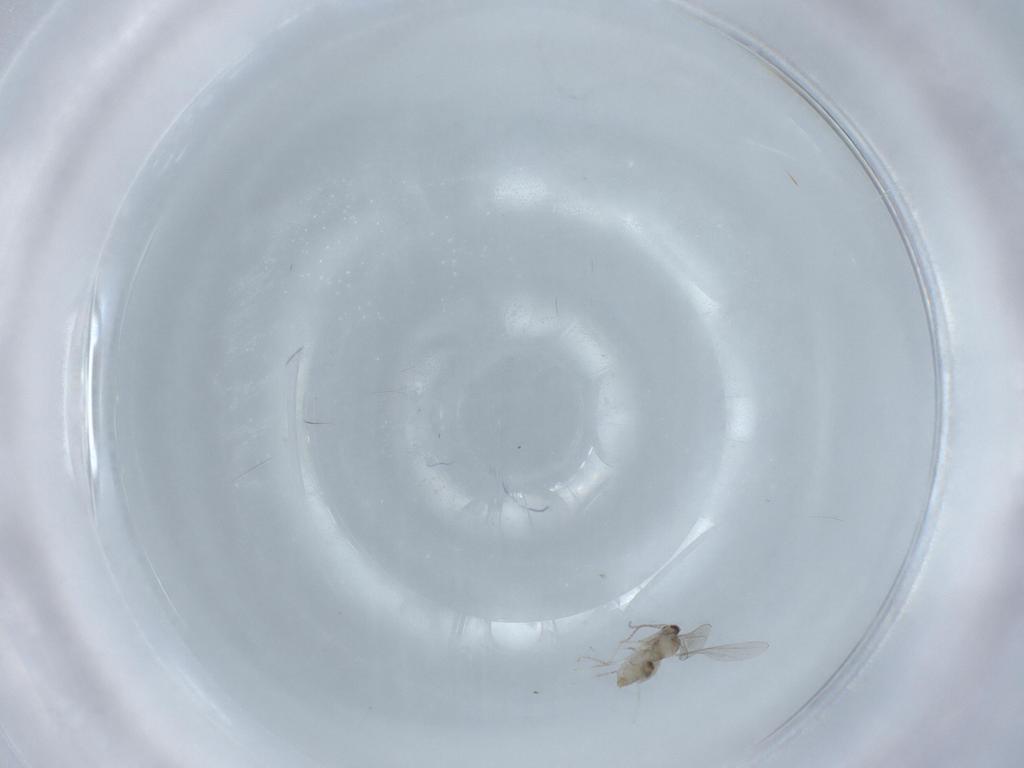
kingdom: Animalia
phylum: Arthropoda
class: Insecta
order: Diptera
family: Cecidomyiidae
